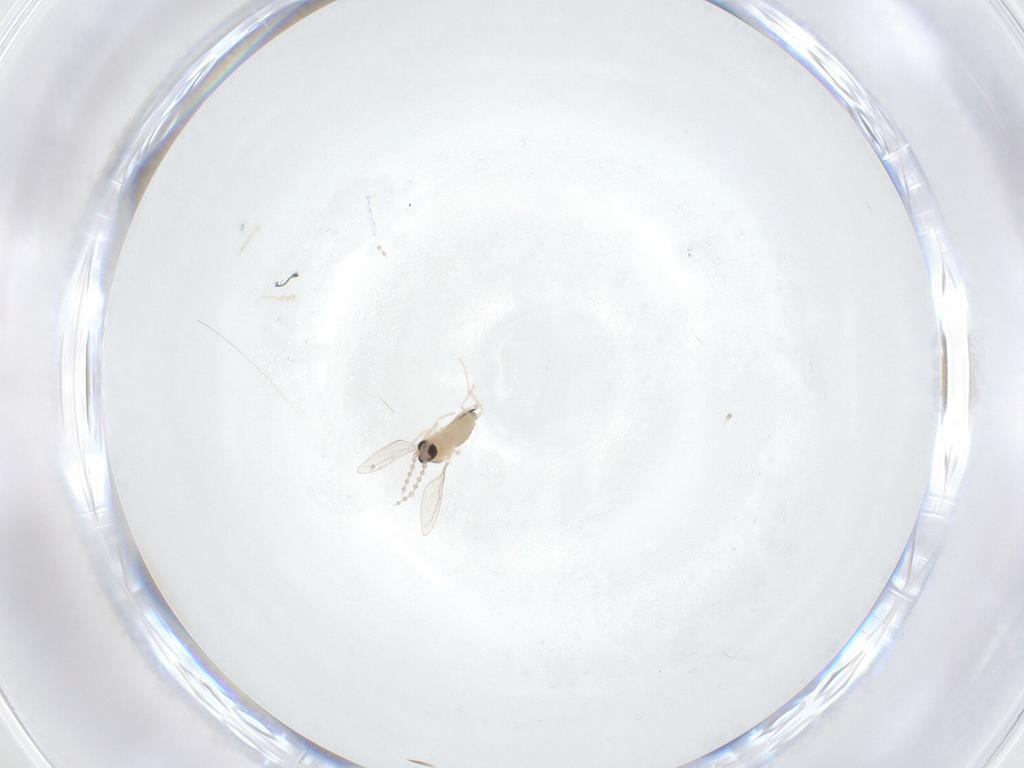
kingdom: Animalia
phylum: Arthropoda
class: Insecta
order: Diptera
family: Cecidomyiidae
